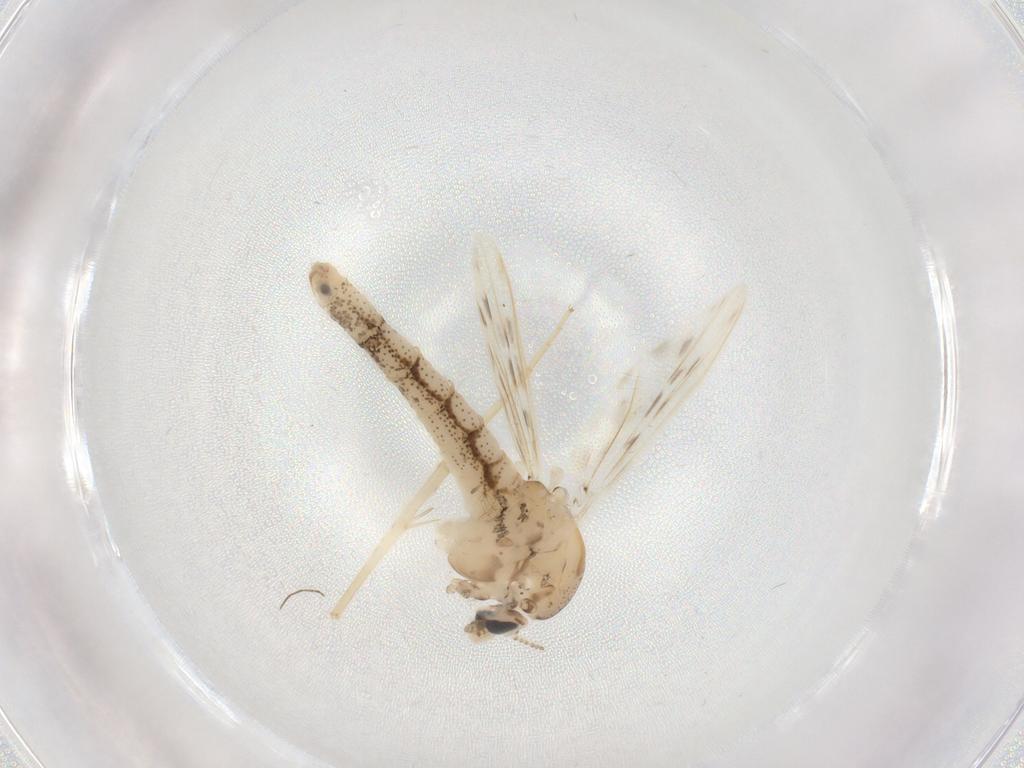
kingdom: Animalia
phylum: Arthropoda
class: Insecta
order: Diptera
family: Chaoboridae
